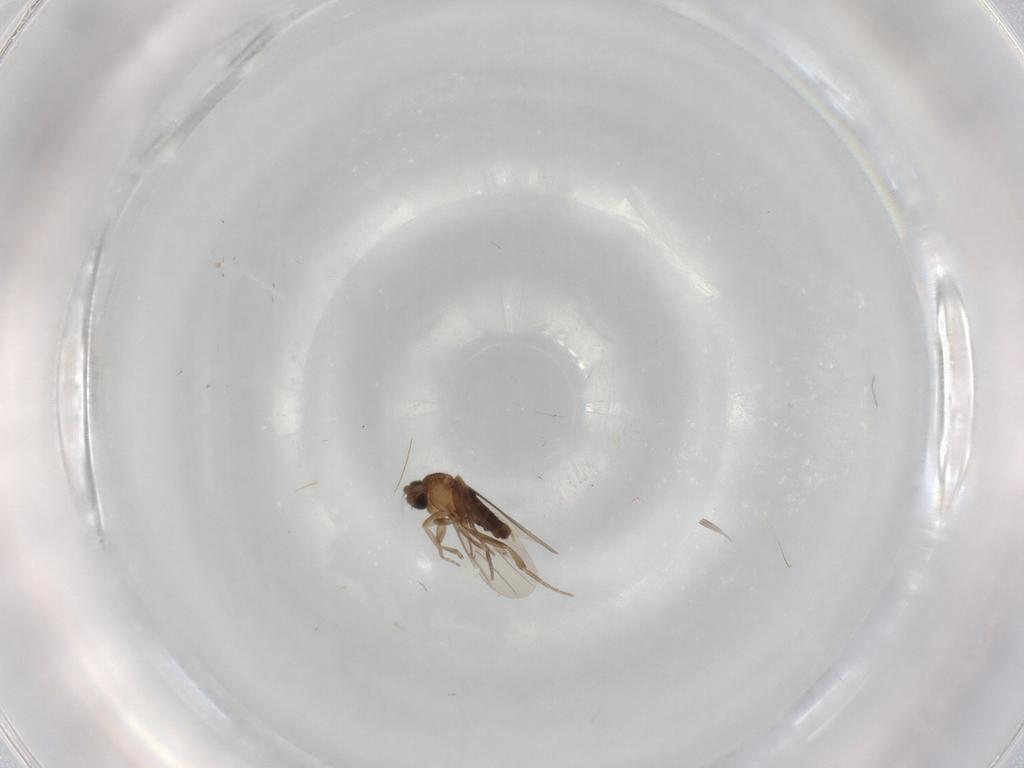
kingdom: Animalia
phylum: Arthropoda
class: Insecta
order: Diptera
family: Phoridae
